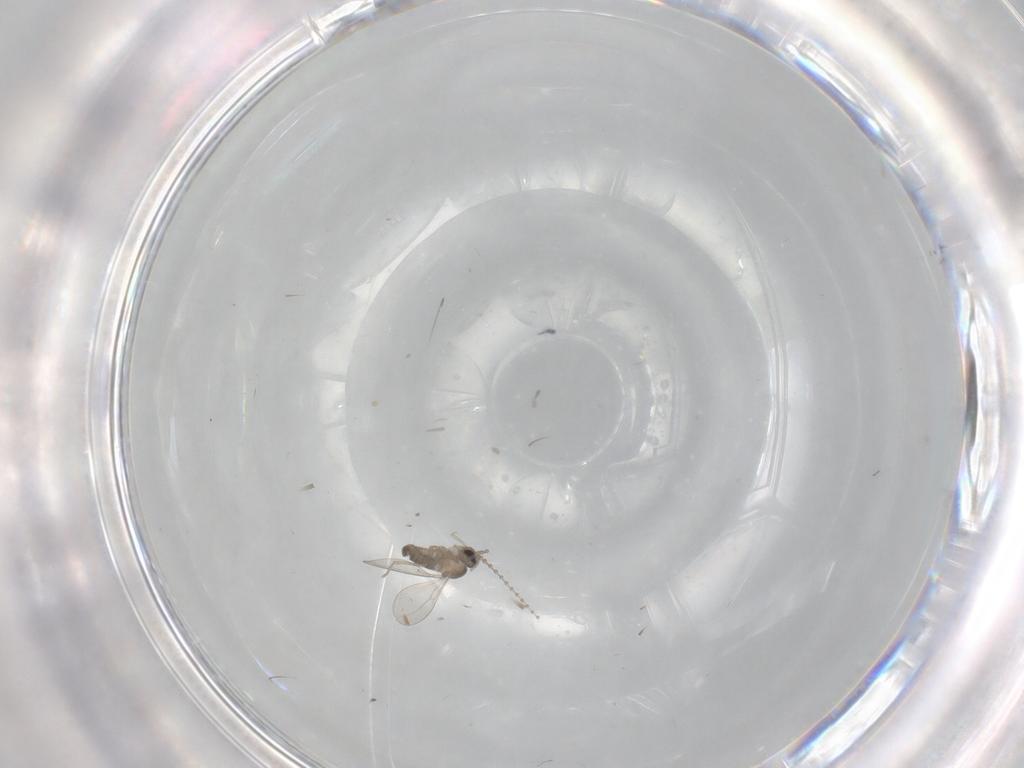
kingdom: Animalia
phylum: Arthropoda
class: Insecta
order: Diptera
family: Cecidomyiidae
